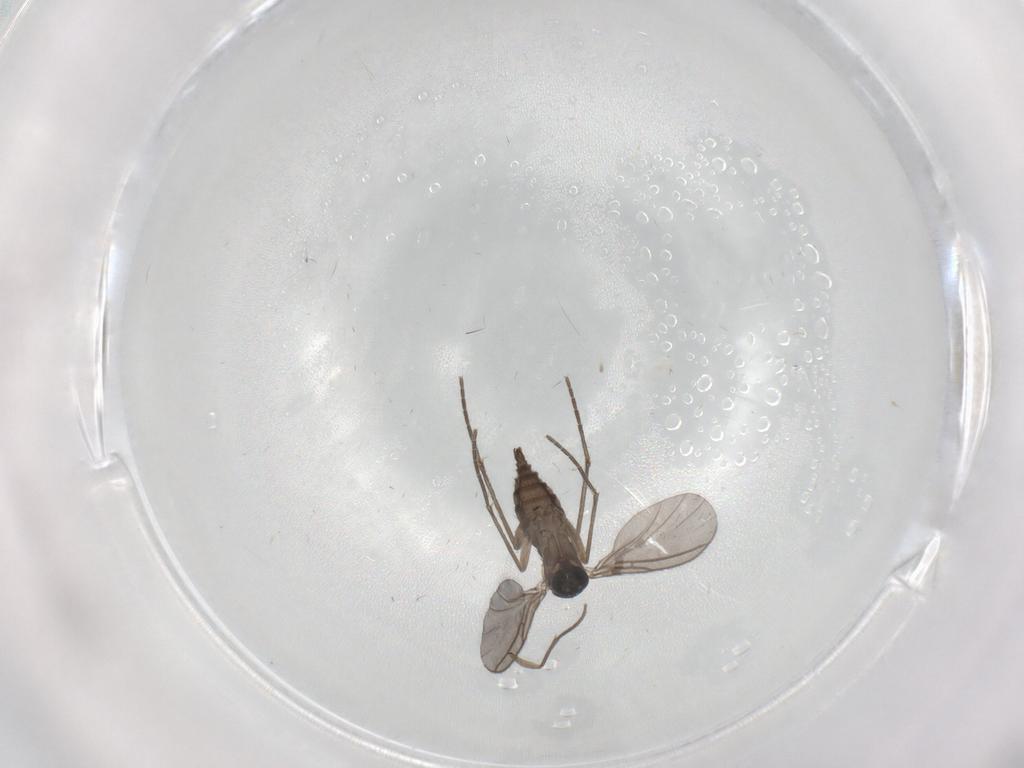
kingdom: Animalia
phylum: Arthropoda
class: Insecta
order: Diptera
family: Sciaridae
